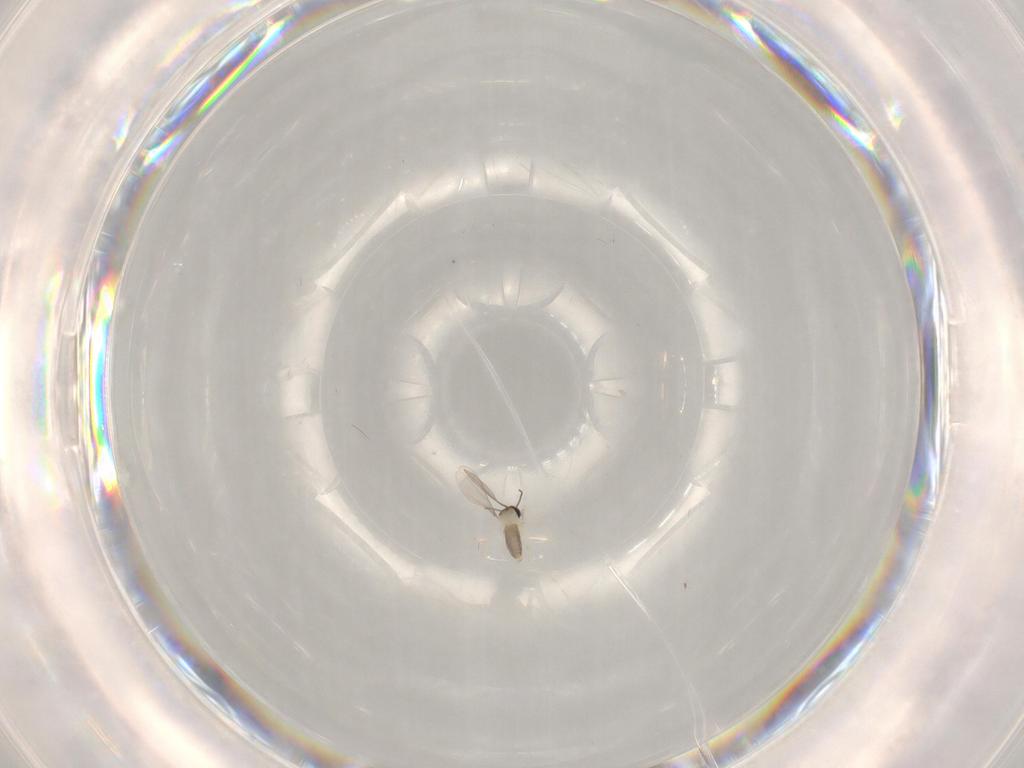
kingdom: Animalia
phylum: Arthropoda
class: Insecta
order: Diptera
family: Cecidomyiidae
